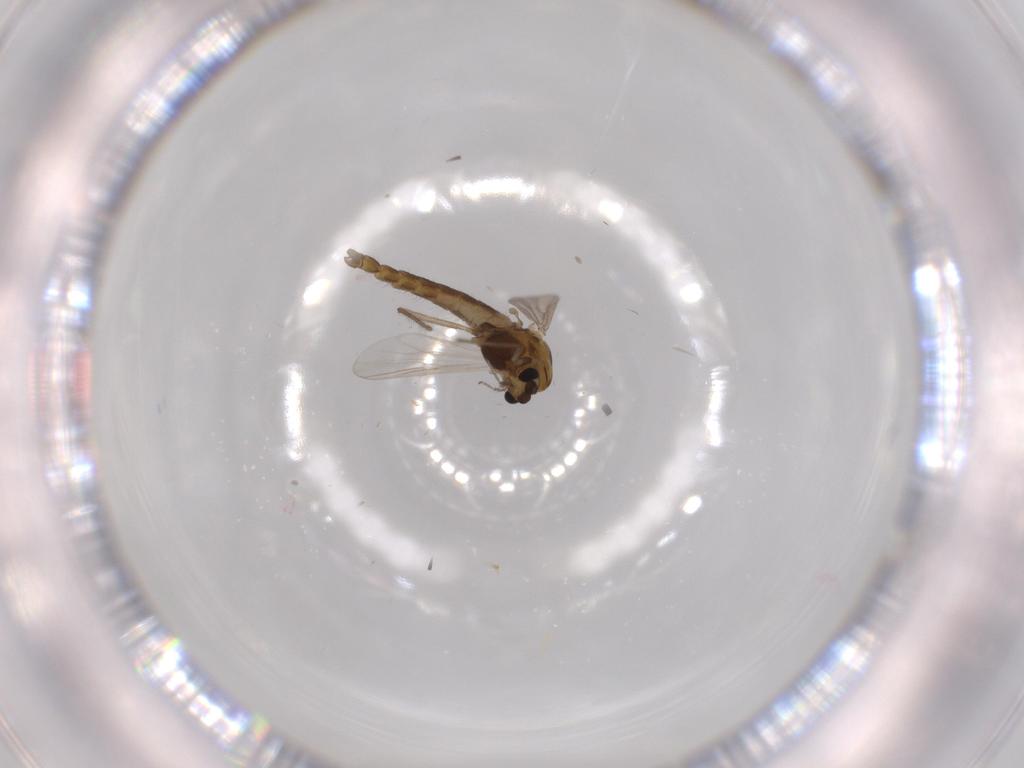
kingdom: Animalia
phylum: Arthropoda
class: Insecta
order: Diptera
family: Chironomidae
